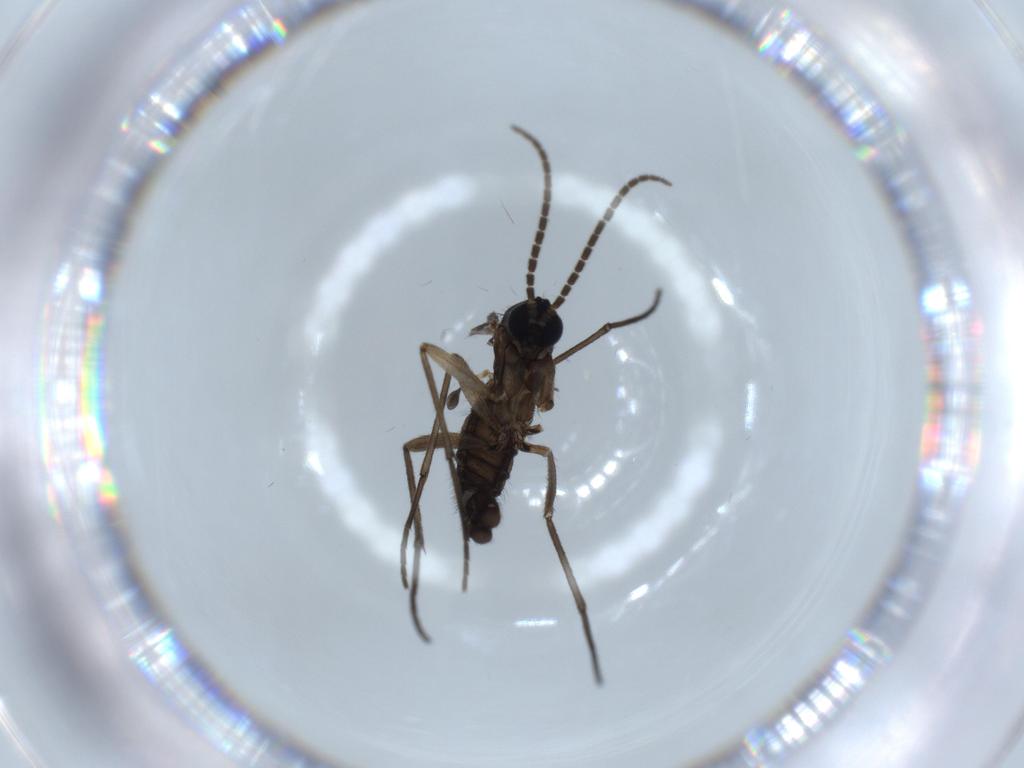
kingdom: Animalia
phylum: Arthropoda
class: Insecta
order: Diptera
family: Sciaridae
